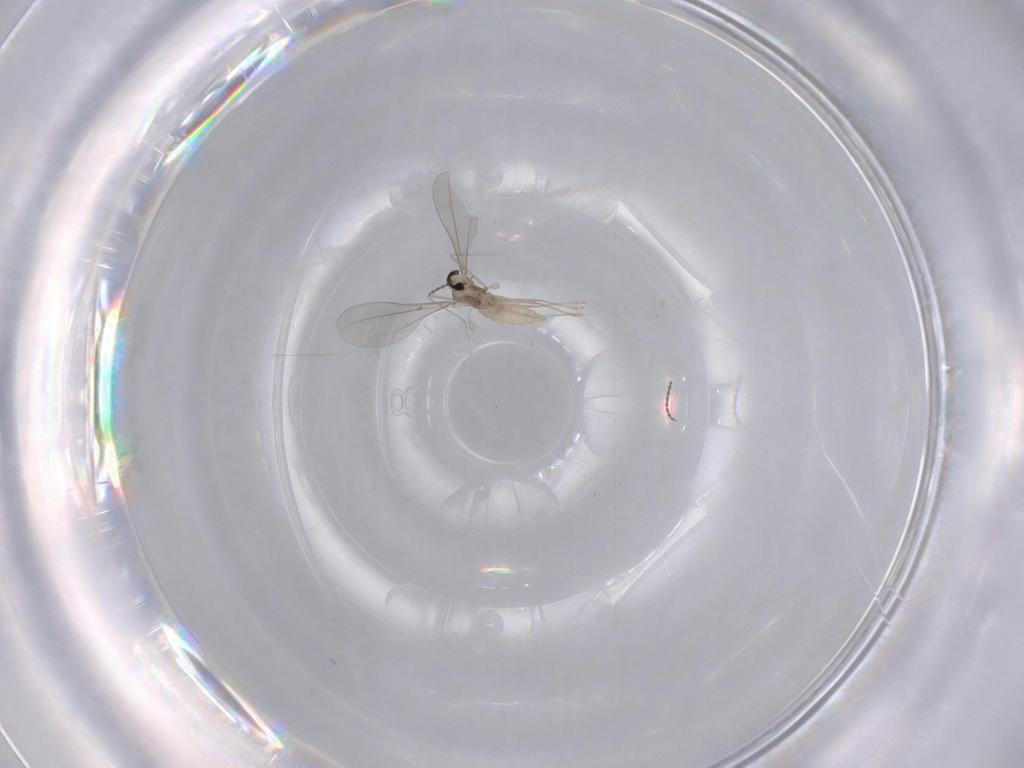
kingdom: Animalia
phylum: Arthropoda
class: Insecta
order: Diptera
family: Cecidomyiidae
